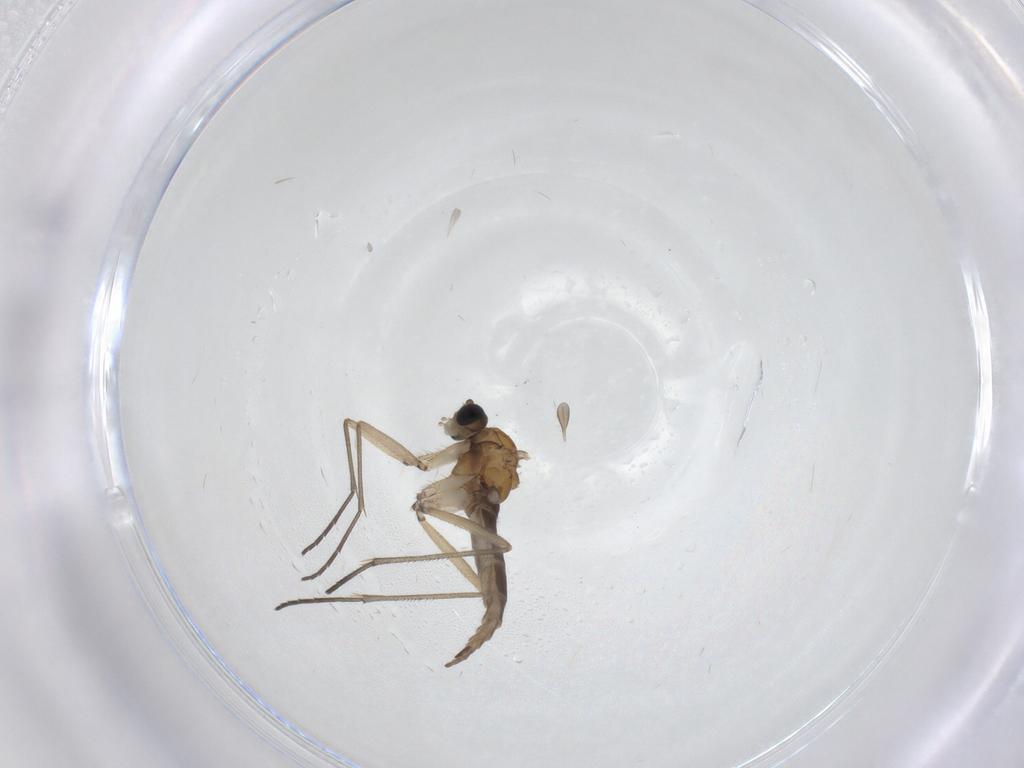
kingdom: Animalia
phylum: Arthropoda
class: Insecta
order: Diptera
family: Sciaridae
